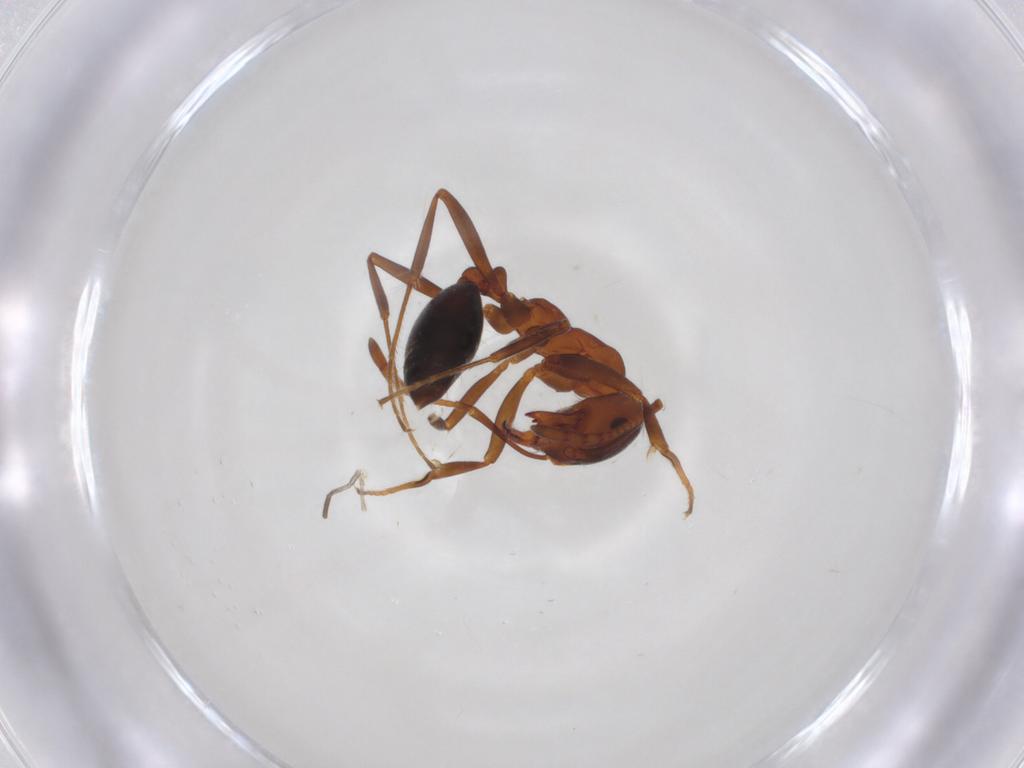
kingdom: Animalia
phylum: Arthropoda
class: Insecta
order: Hymenoptera
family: Formicidae
